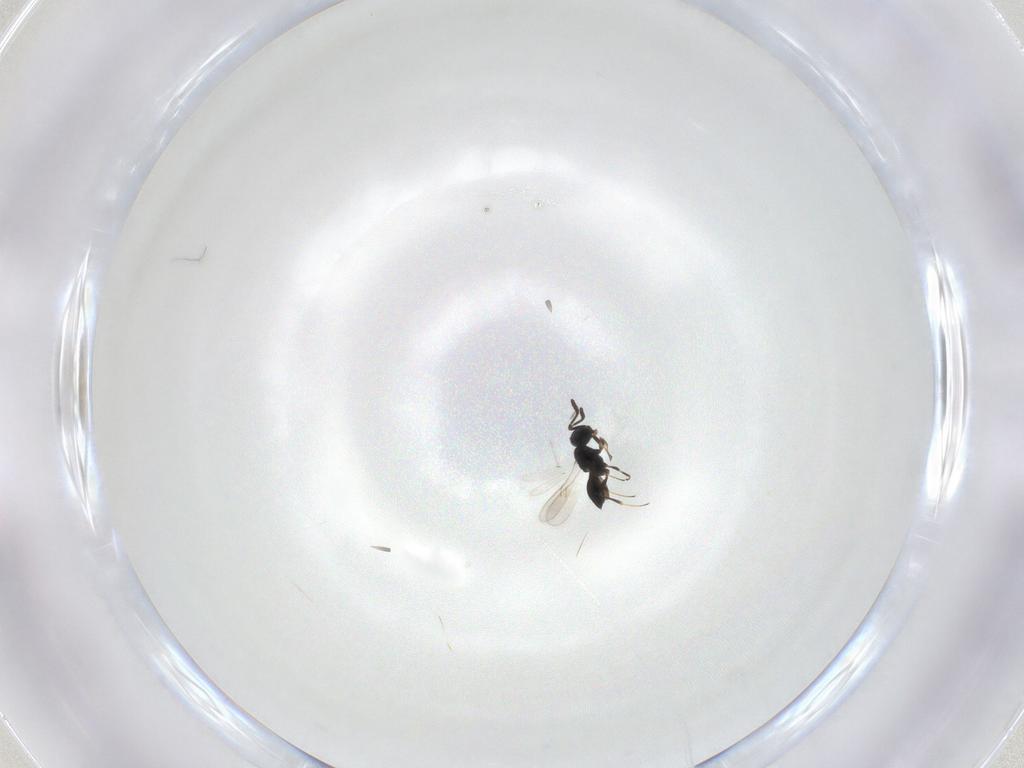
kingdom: Animalia
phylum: Arthropoda
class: Insecta
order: Hymenoptera
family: Scelionidae
